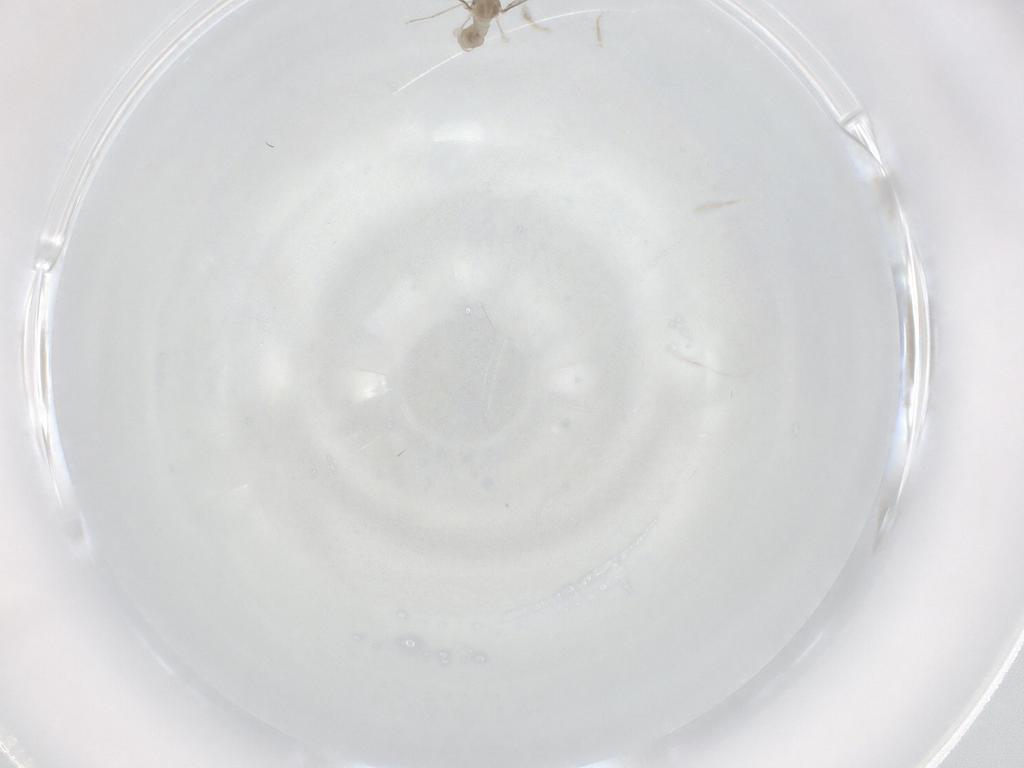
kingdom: Animalia
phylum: Arthropoda
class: Insecta
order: Diptera
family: Cecidomyiidae
